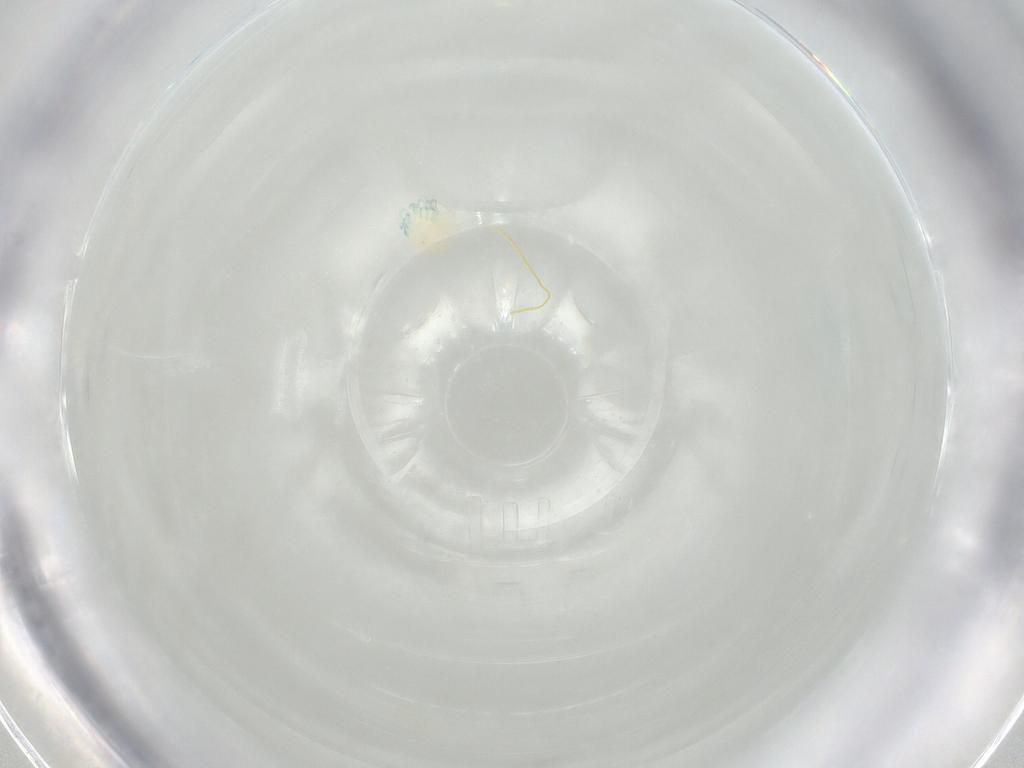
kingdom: Animalia
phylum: Arthropoda
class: Arachnida
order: Trombidiformes
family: Arrenuridae
